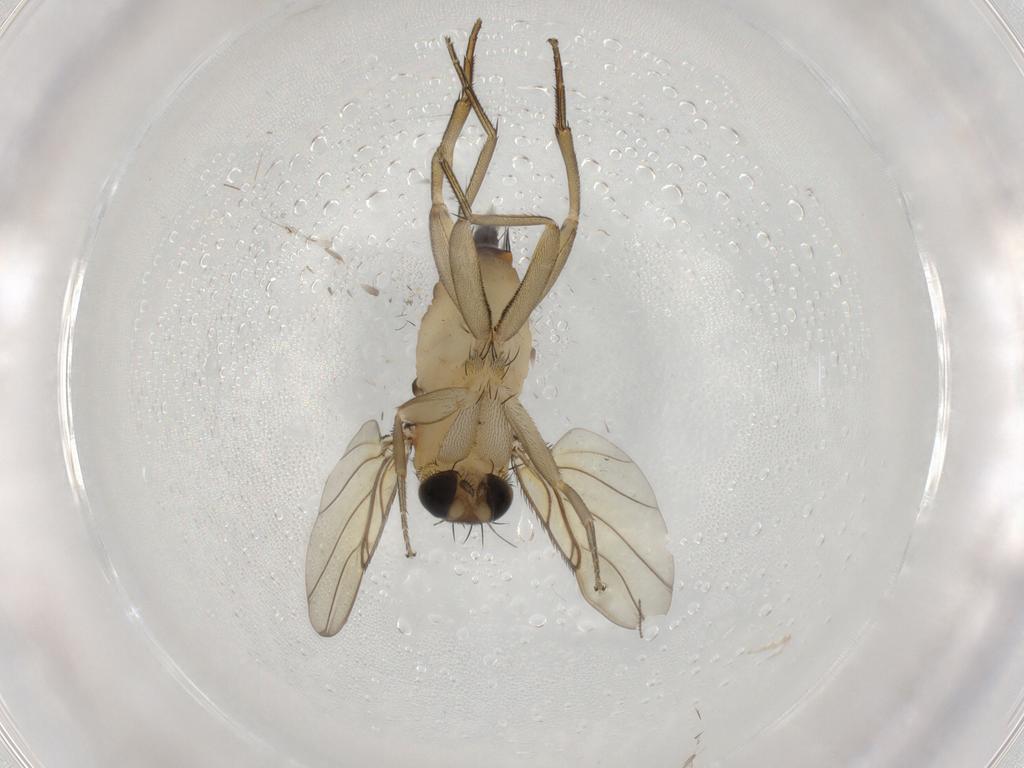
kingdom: Animalia
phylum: Arthropoda
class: Insecta
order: Diptera
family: Phoridae
